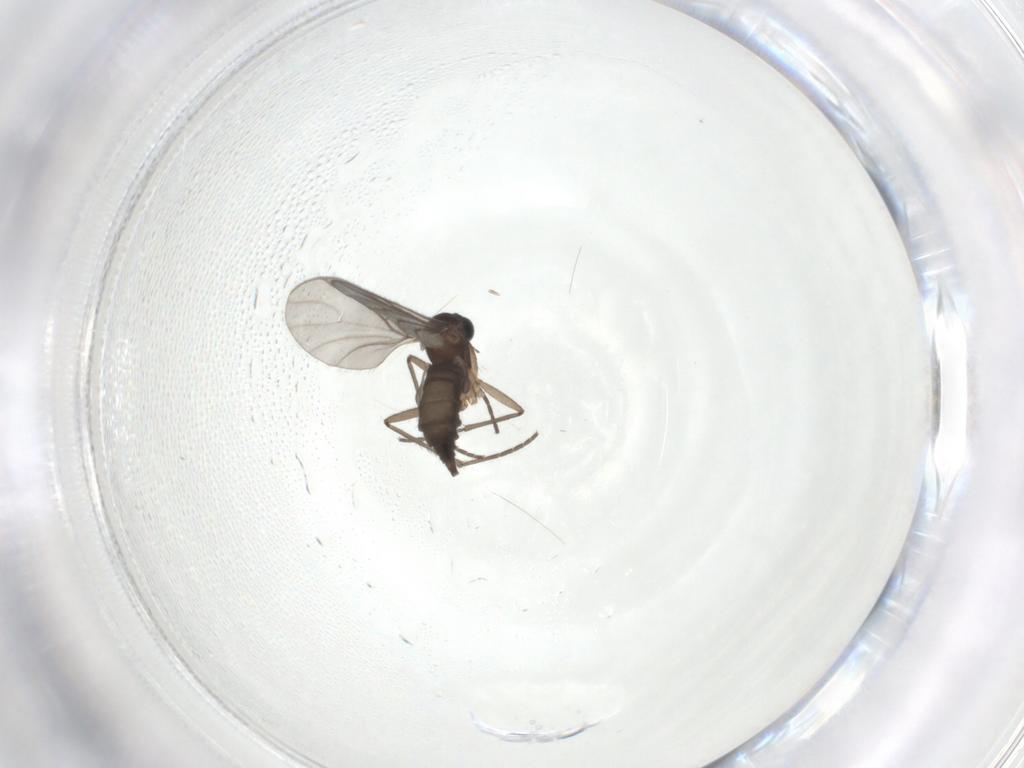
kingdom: Animalia
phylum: Arthropoda
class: Insecta
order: Diptera
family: Sciaridae
